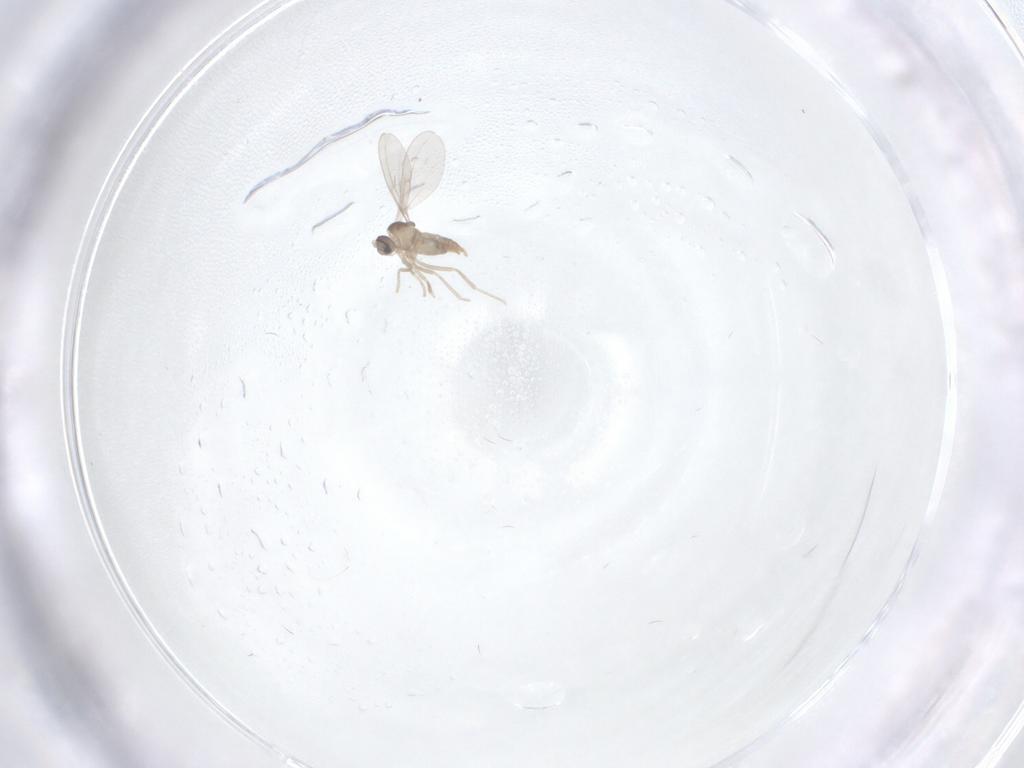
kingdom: Animalia
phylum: Arthropoda
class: Insecta
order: Diptera
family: Cecidomyiidae
